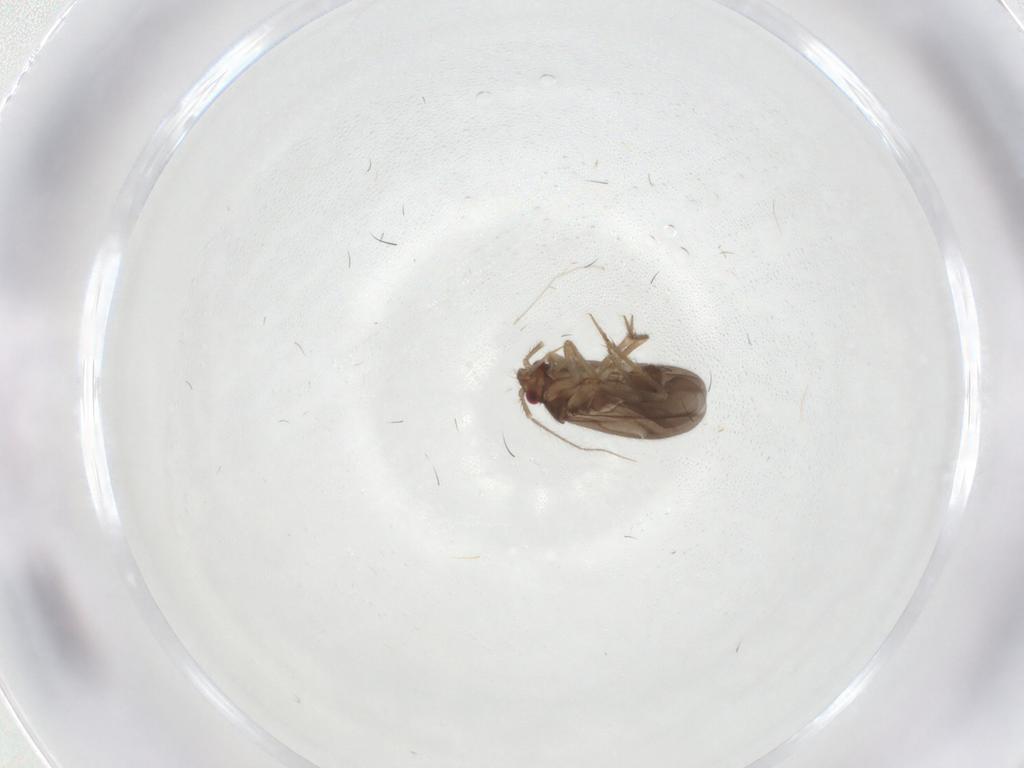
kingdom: Animalia
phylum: Arthropoda
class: Insecta
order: Hemiptera
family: Ceratocombidae
